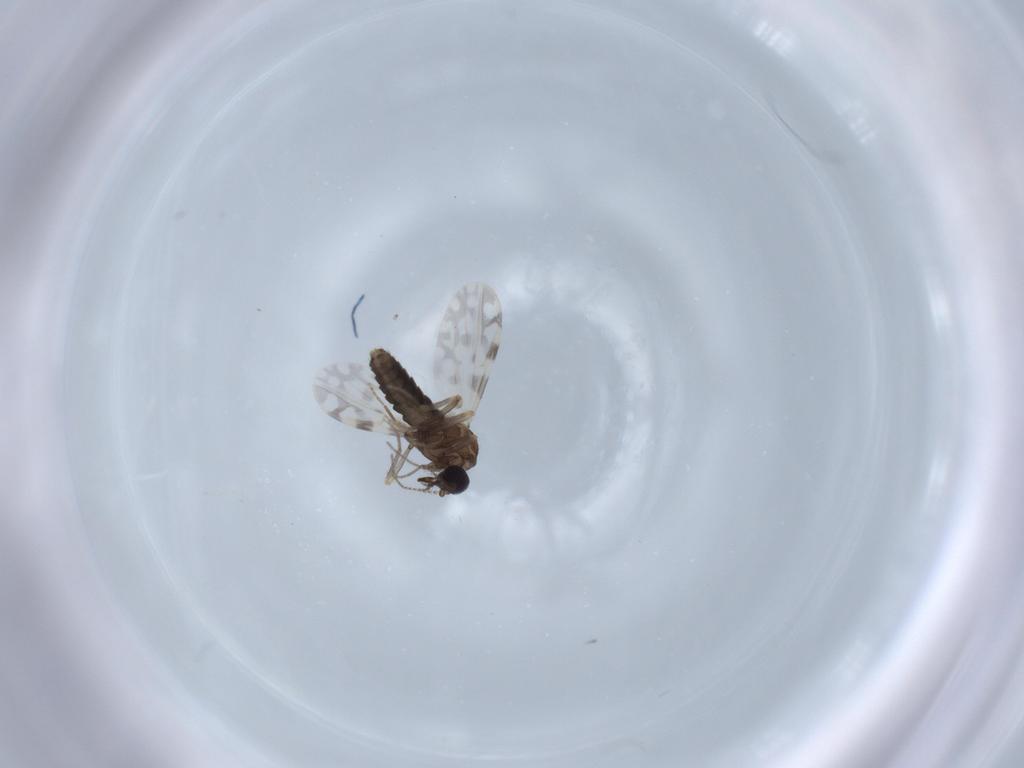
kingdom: Animalia
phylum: Arthropoda
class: Insecta
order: Diptera
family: Ceratopogonidae
